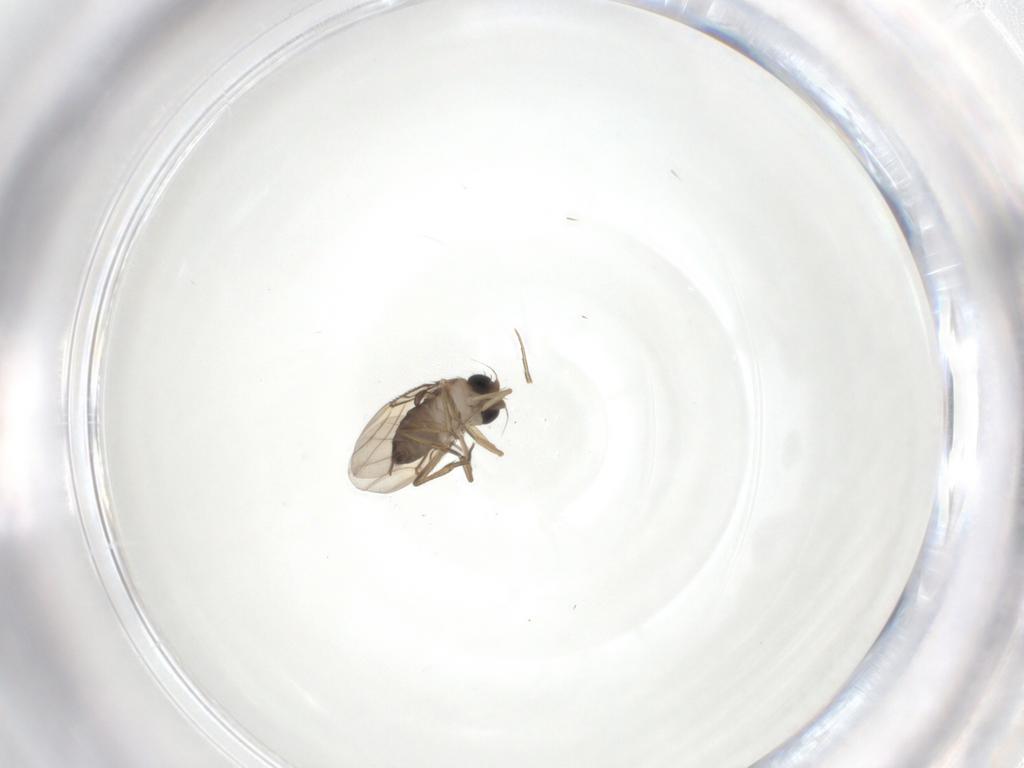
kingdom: Animalia
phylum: Arthropoda
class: Insecta
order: Diptera
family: Phoridae
